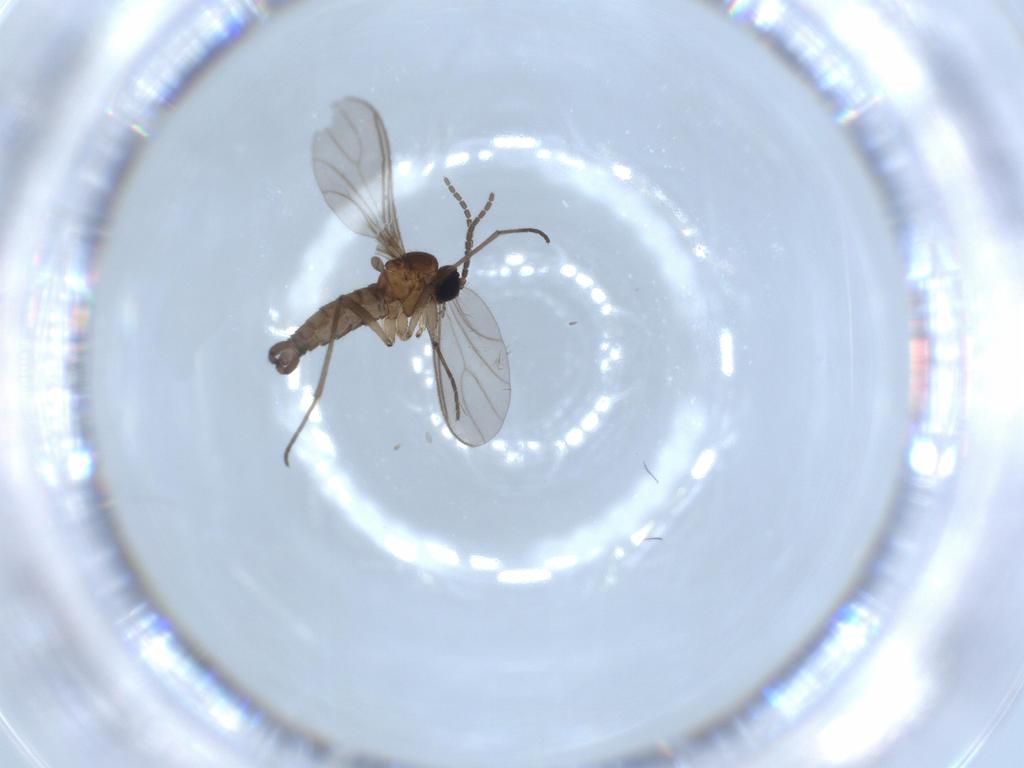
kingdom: Animalia
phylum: Arthropoda
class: Insecta
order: Diptera
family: Sciaridae
